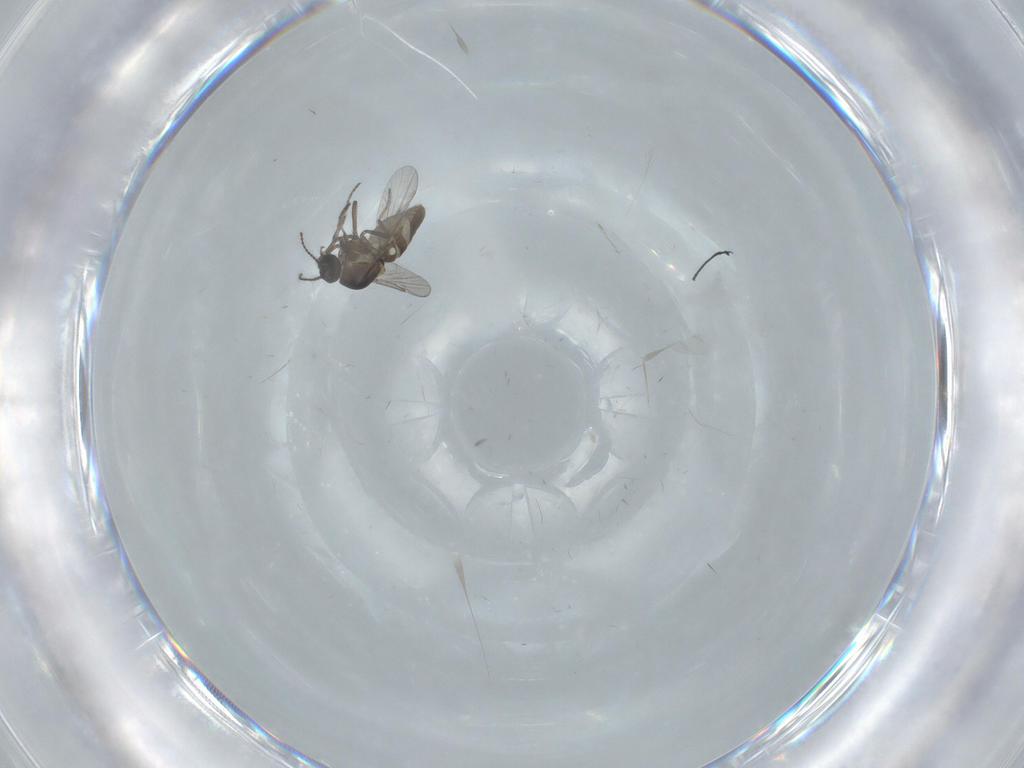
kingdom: Animalia
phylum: Arthropoda
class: Insecta
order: Diptera
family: Ceratopogonidae
